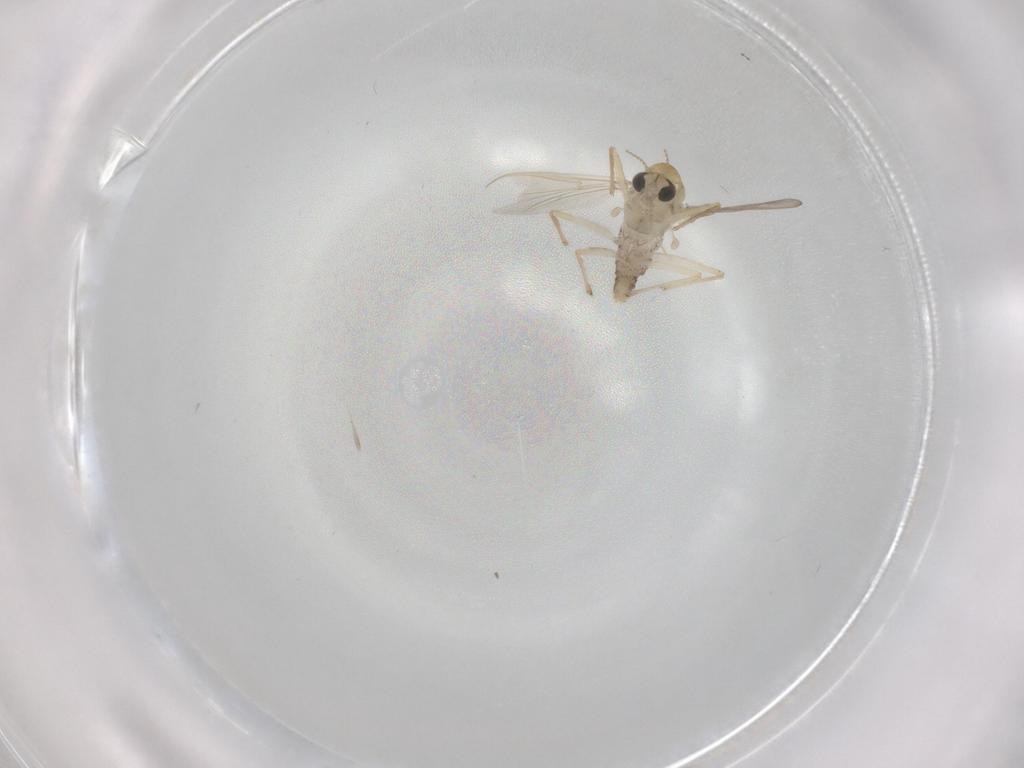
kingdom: Animalia
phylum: Arthropoda
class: Insecta
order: Diptera
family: Chironomidae
